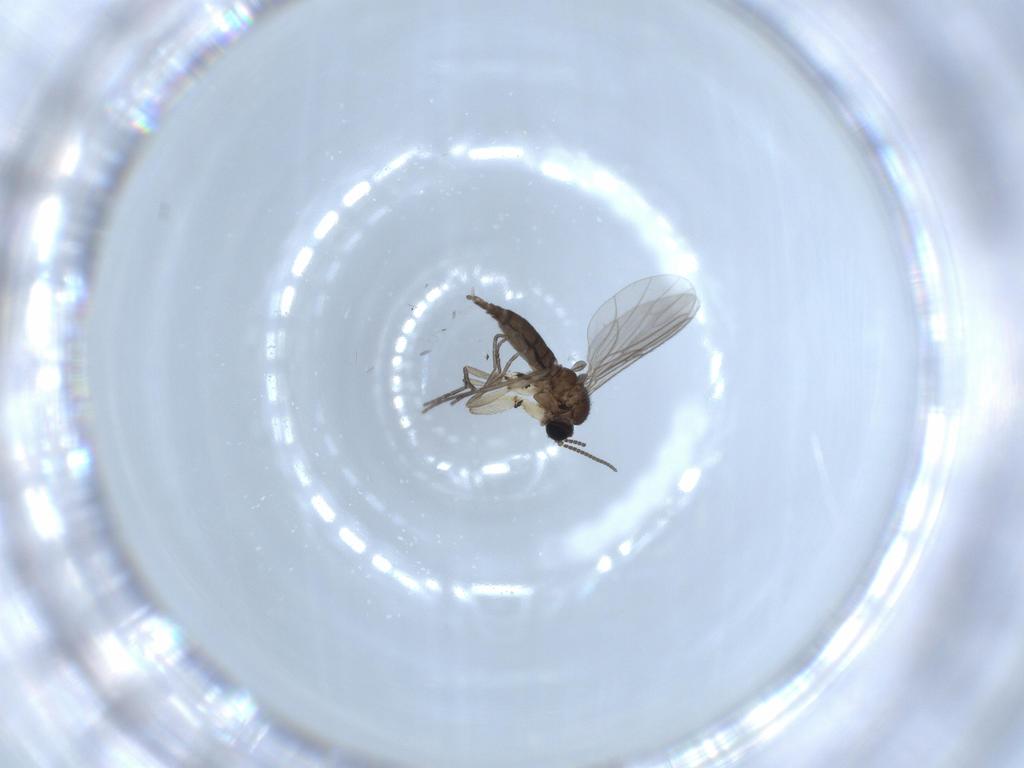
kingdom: Animalia
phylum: Arthropoda
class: Insecta
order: Diptera
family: Sciaridae
